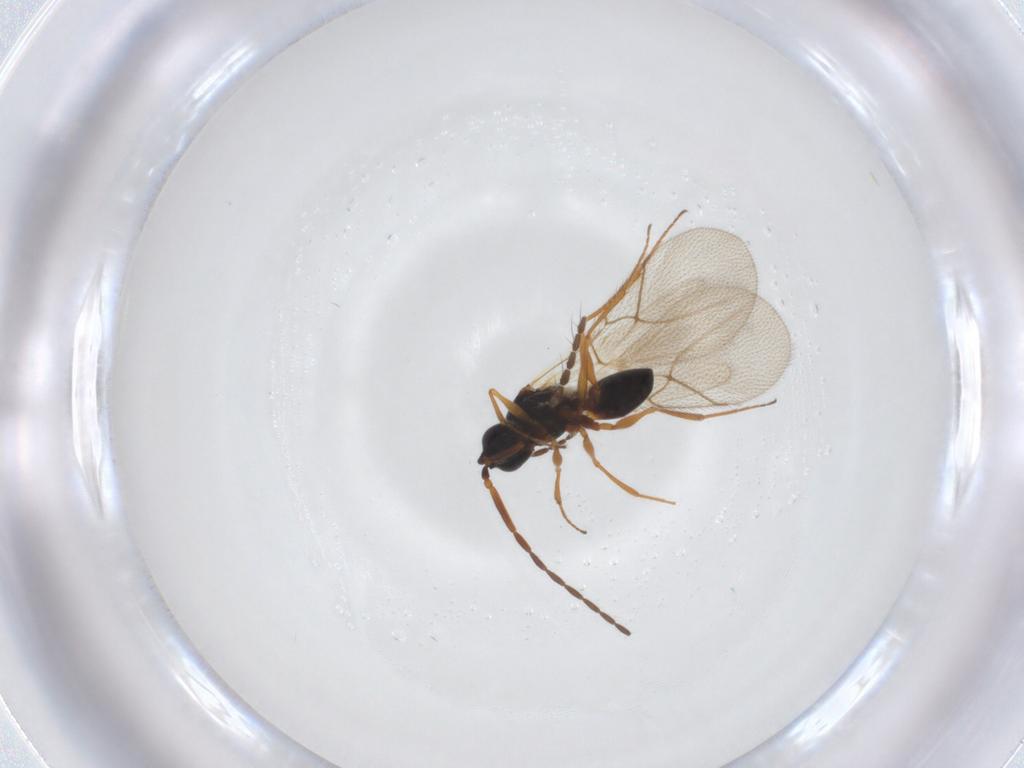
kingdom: Animalia
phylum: Arthropoda
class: Insecta
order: Hymenoptera
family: Figitidae
